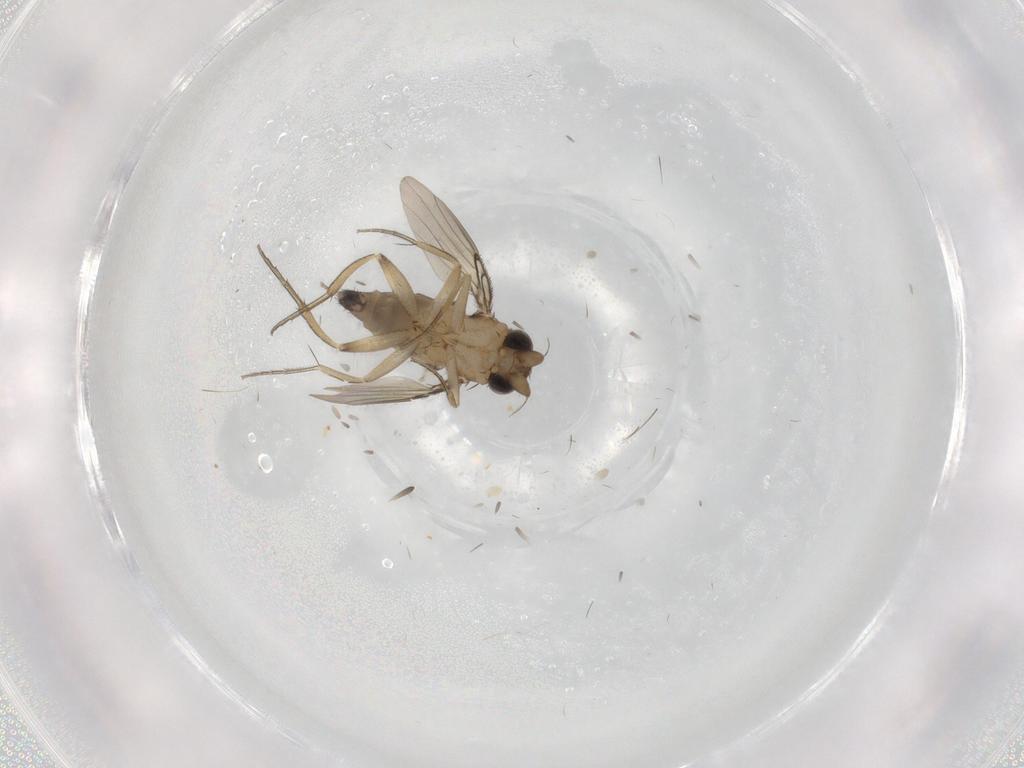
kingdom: Animalia
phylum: Arthropoda
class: Insecta
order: Diptera
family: Phoridae
